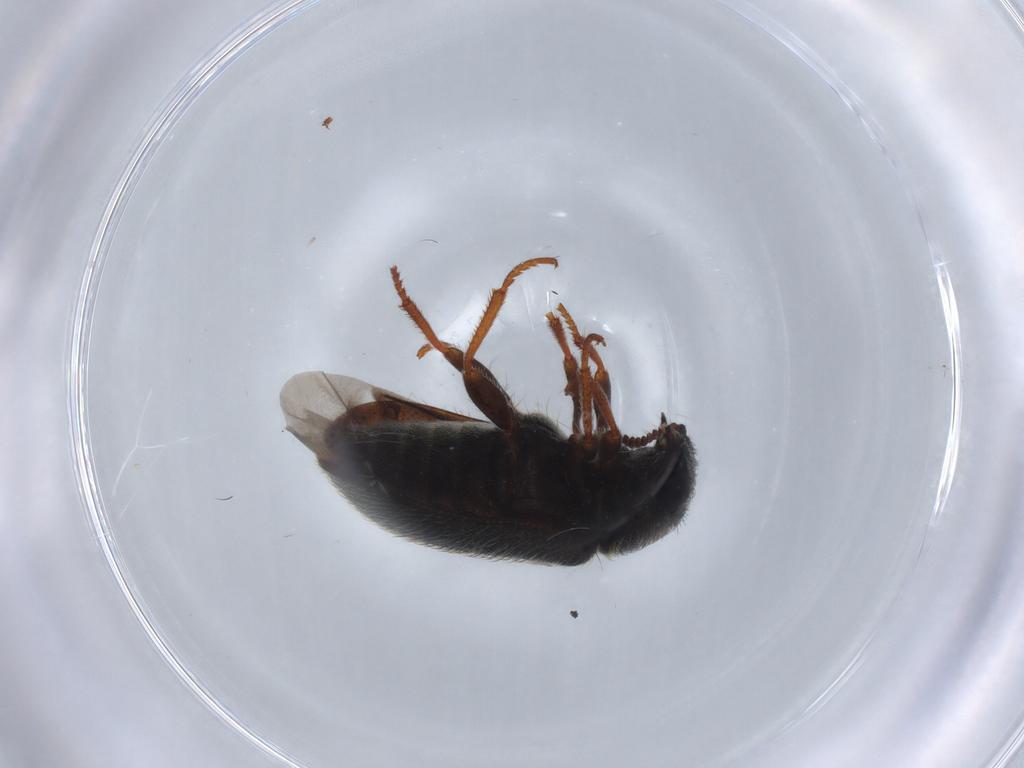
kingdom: Animalia
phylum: Arthropoda
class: Insecta
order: Coleoptera
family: Melyridae
